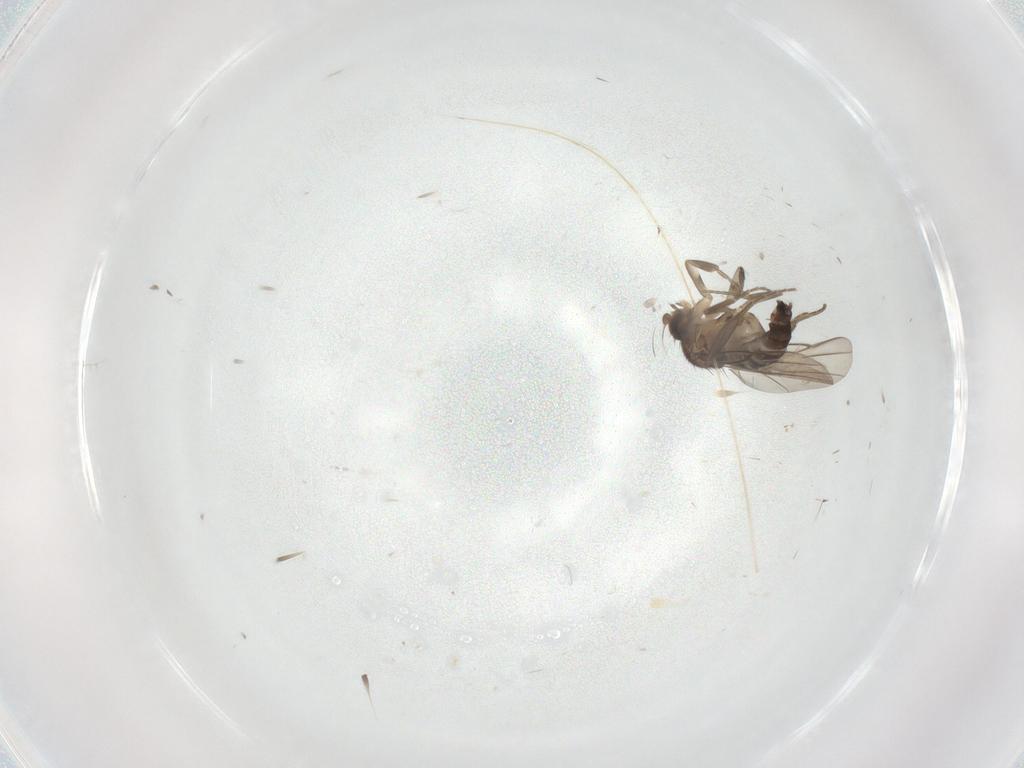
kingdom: Animalia
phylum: Arthropoda
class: Insecta
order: Diptera
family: Phoridae
